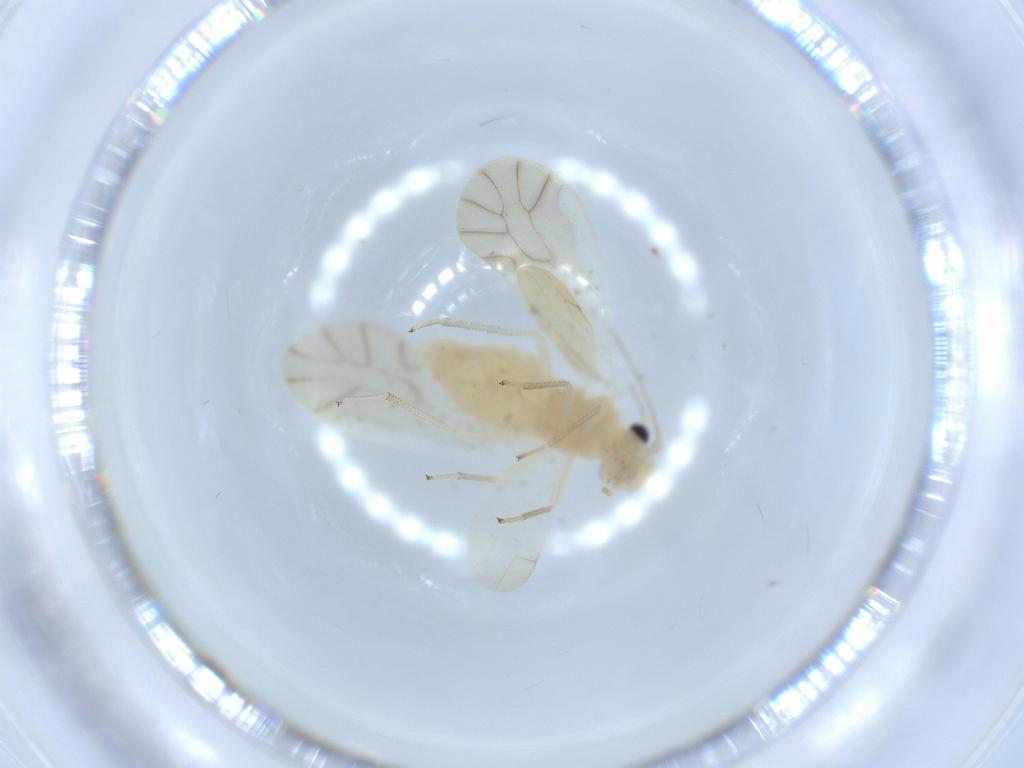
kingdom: Animalia
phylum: Arthropoda
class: Insecta
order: Psocodea
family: Caeciliusidae
